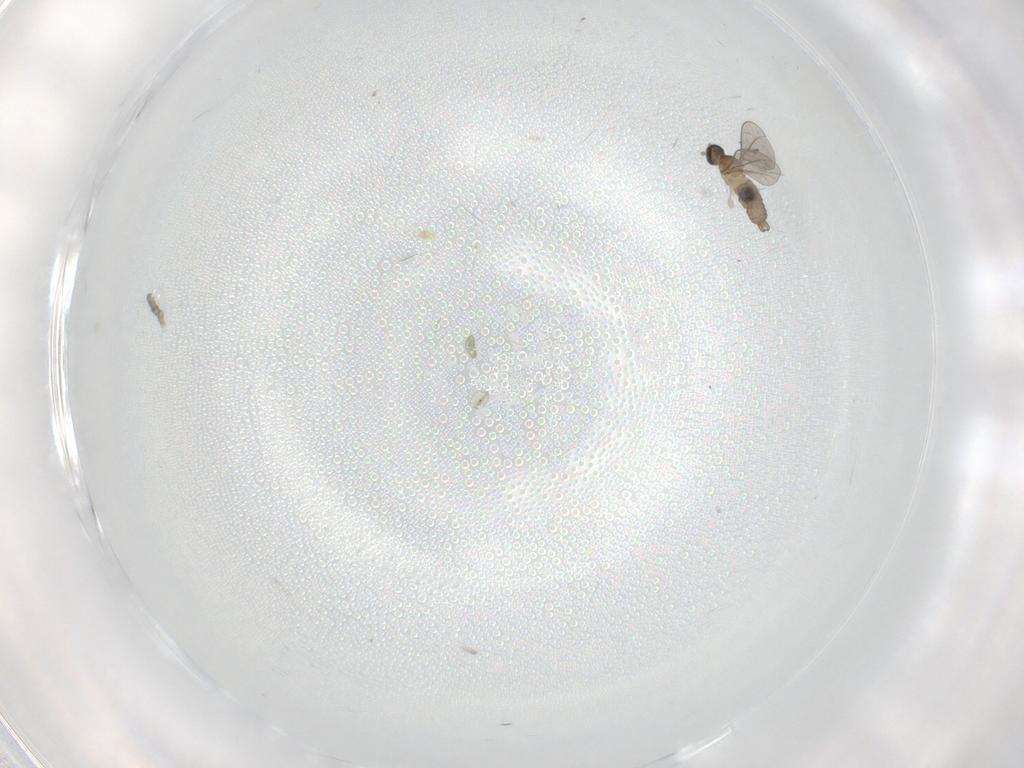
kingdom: Animalia
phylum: Arthropoda
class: Insecta
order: Diptera
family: Cecidomyiidae
